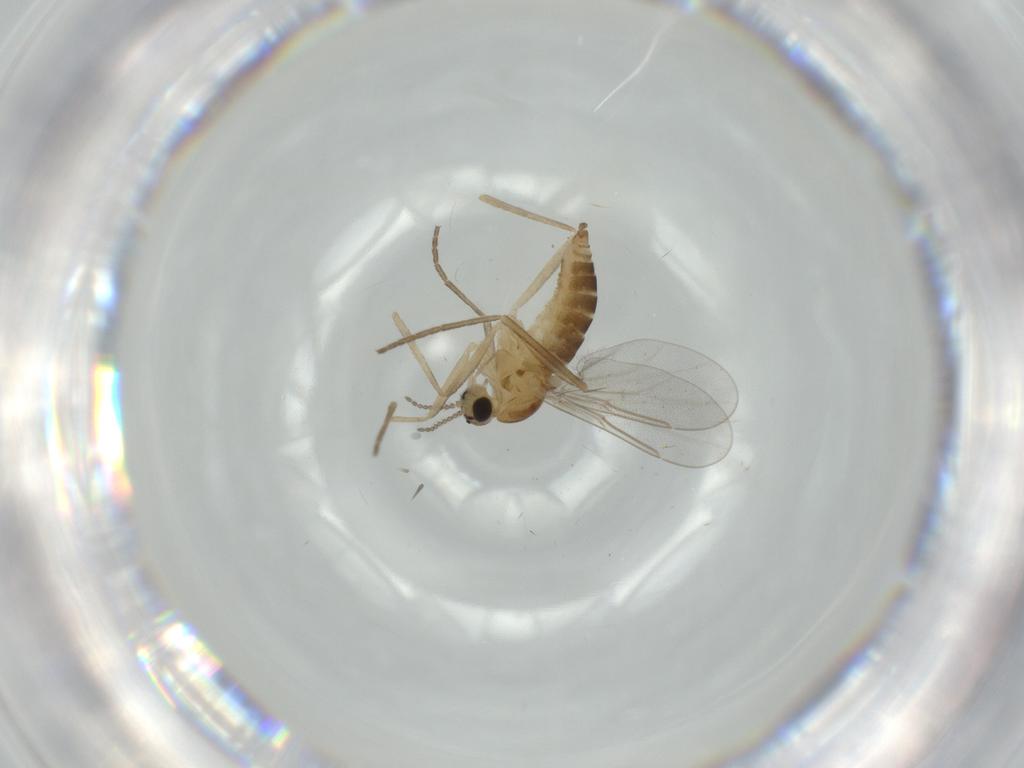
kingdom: Animalia
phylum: Arthropoda
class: Insecta
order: Diptera
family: Cecidomyiidae
